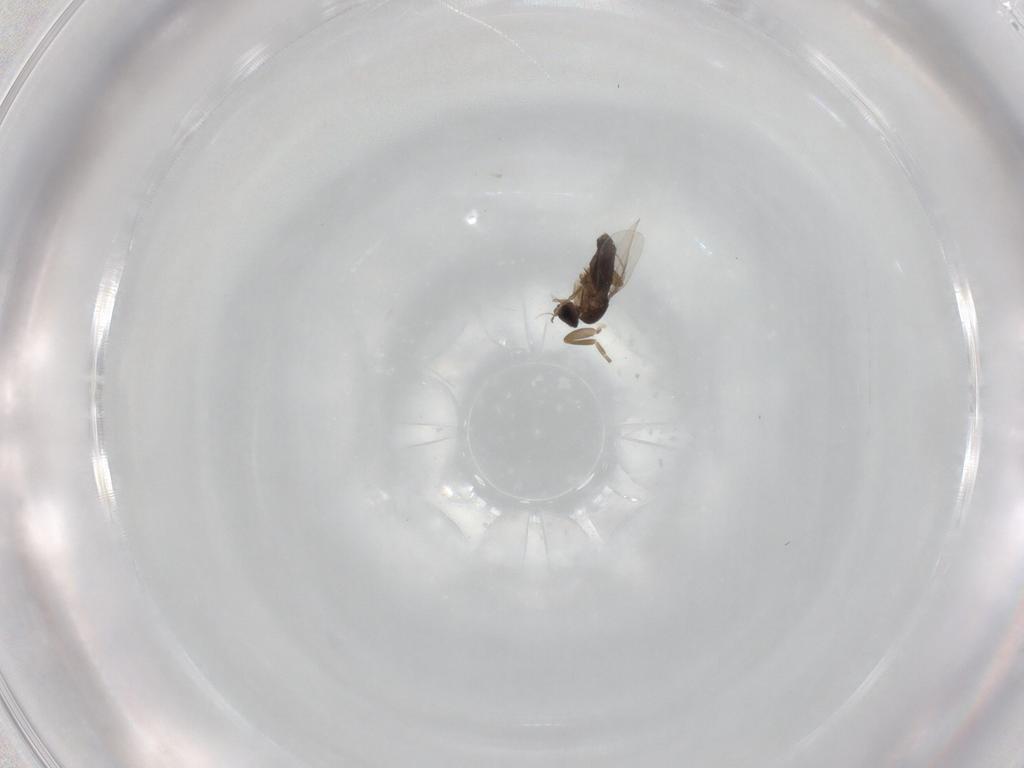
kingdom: Animalia
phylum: Arthropoda
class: Insecta
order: Diptera
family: Phoridae
